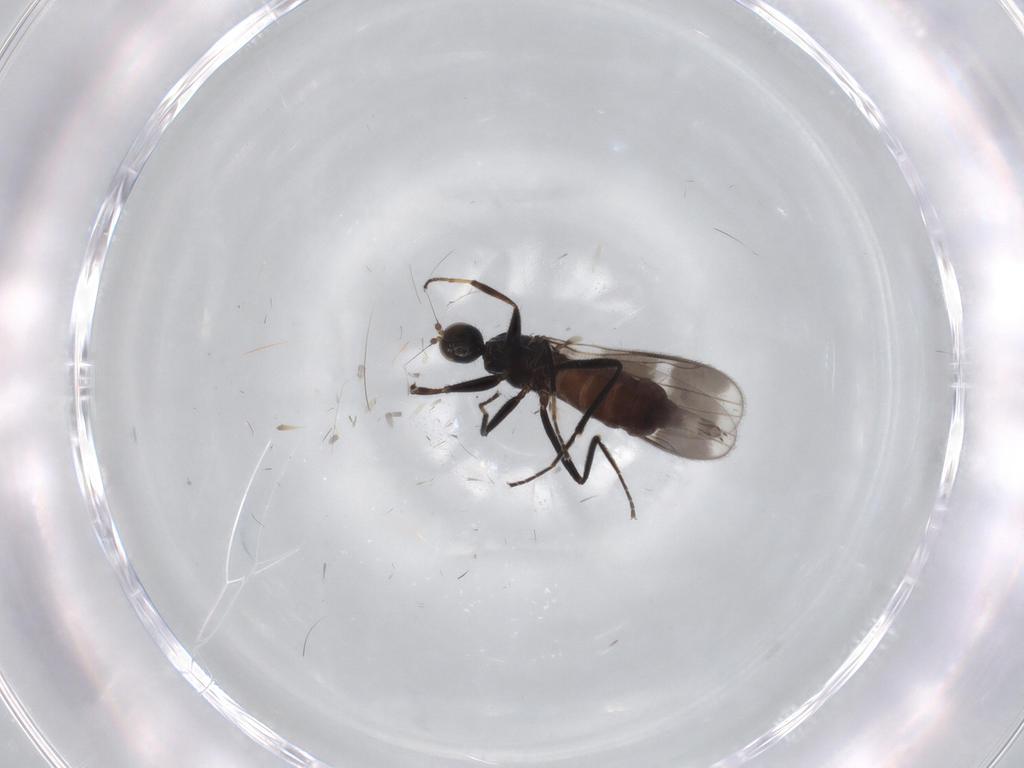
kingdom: Animalia
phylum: Arthropoda
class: Insecta
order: Diptera
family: Hybotidae
